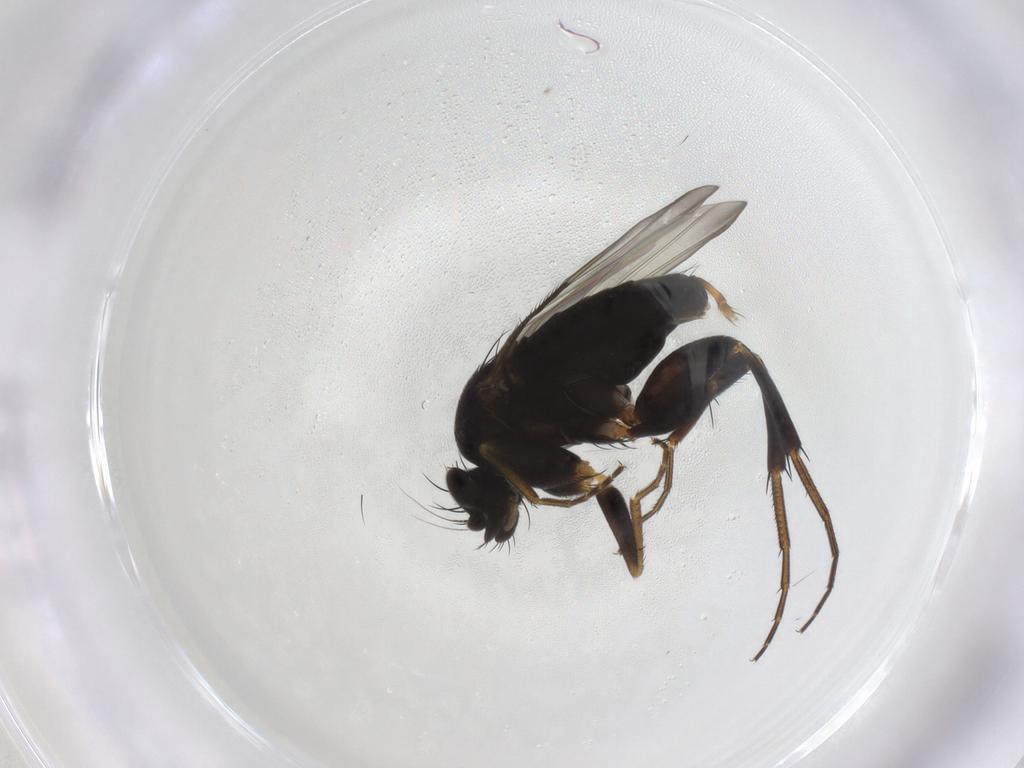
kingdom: Animalia
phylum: Arthropoda
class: Insecta
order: Diptera
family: Phoridae
